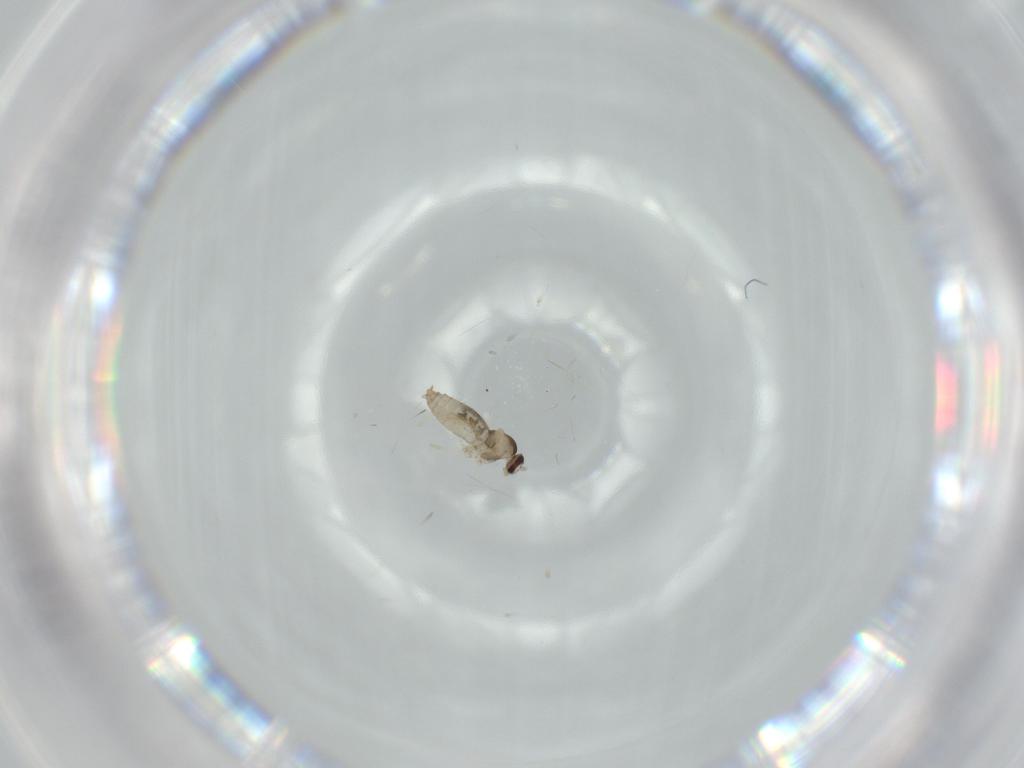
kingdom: Animalia
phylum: Arthropoda
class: Insecta
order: Diptera
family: Cecidomyiidae
